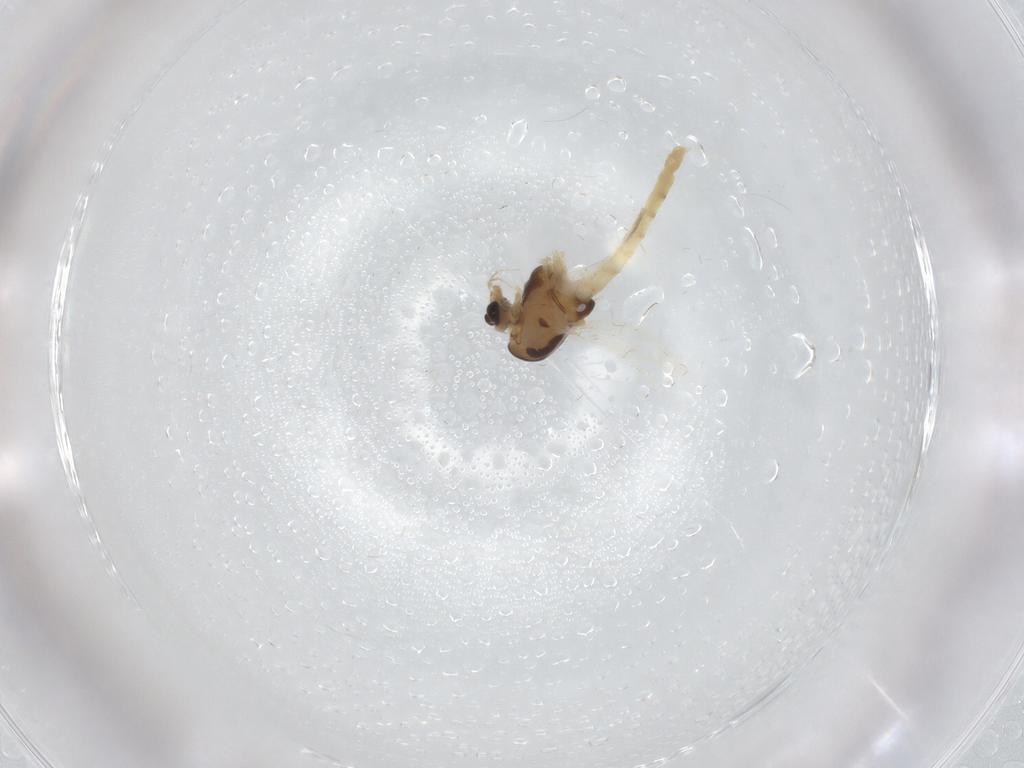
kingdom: Animalia
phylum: Arthropoda
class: Insecta
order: Diptera
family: Chironomidae
